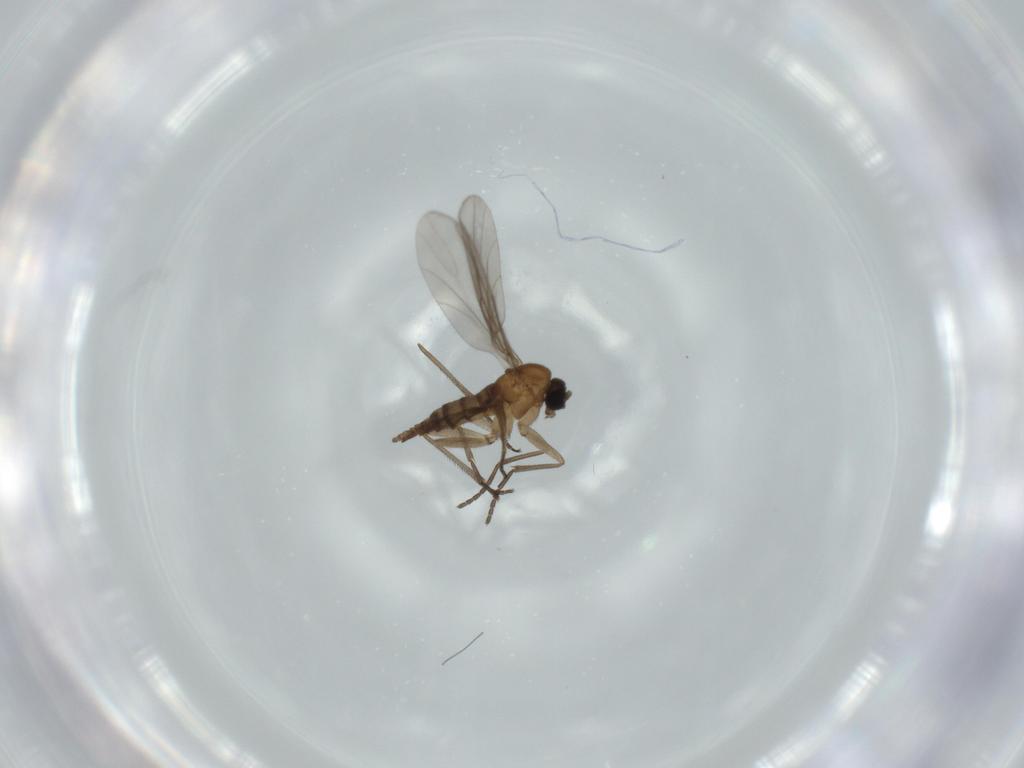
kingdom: Animalia
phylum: Arthropoda
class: Insecta
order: Diptera
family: Sciaridae
